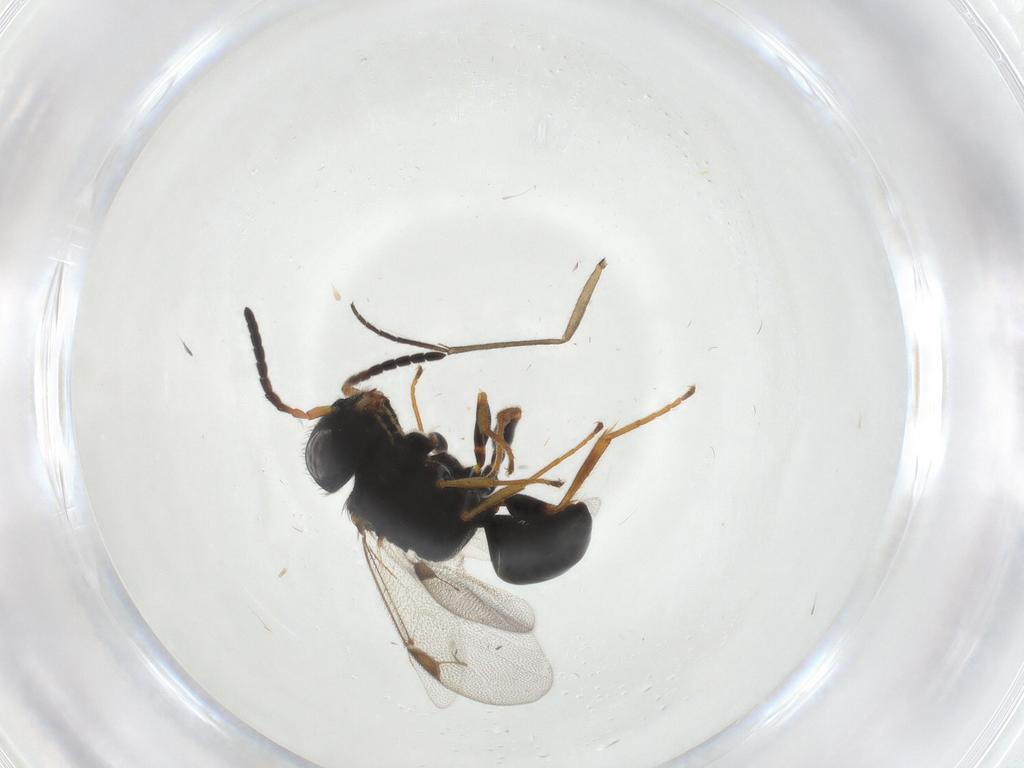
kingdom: Animalia
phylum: Arthropoda
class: Insecta
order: Hymenoptera
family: Dryinidae
